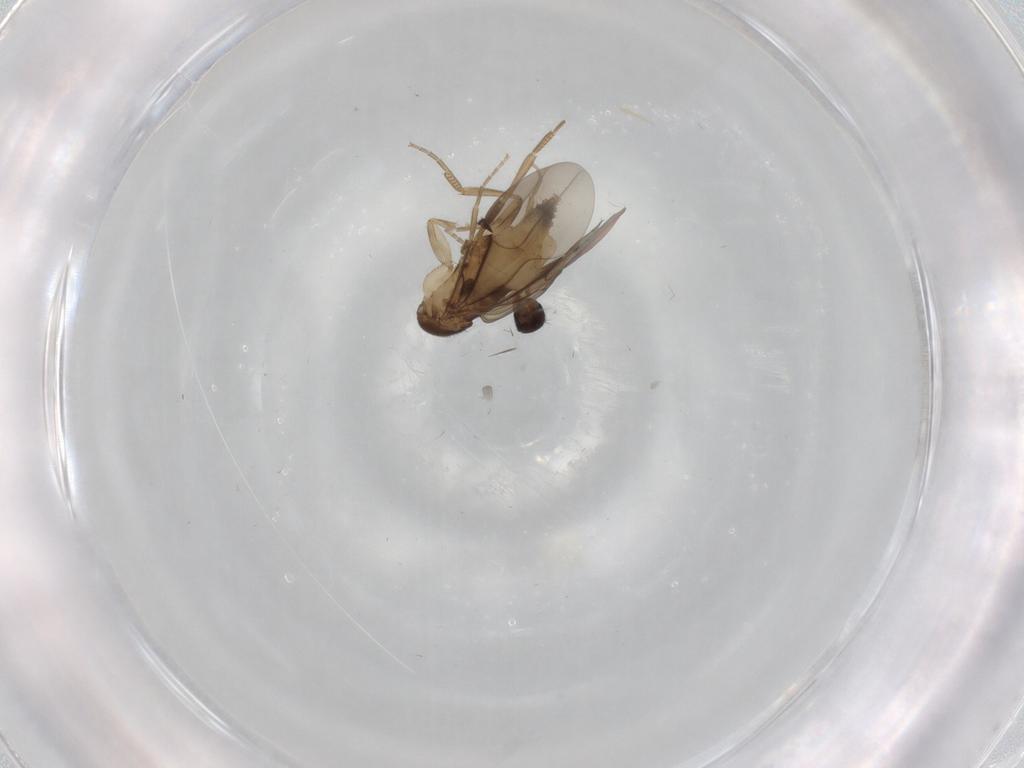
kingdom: Animalia
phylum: Arthropoda
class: Insecta
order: Diptera
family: Phoridae
